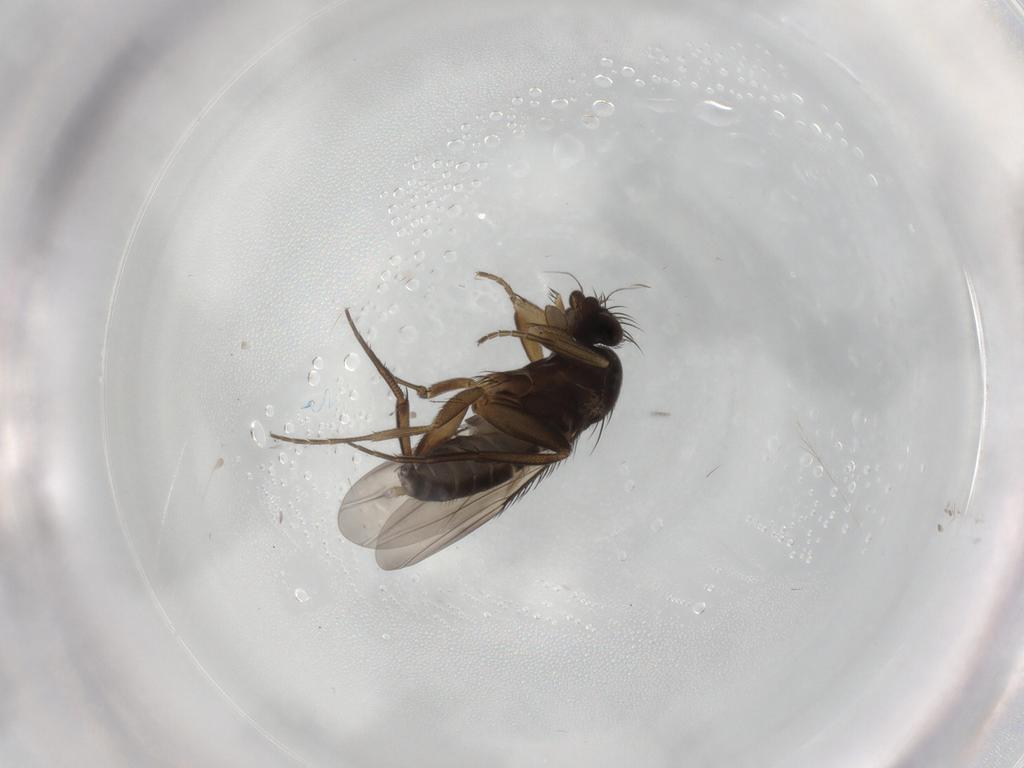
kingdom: Animalia
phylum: Arthropoda
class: Insecta
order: Diptera
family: Phoridae
